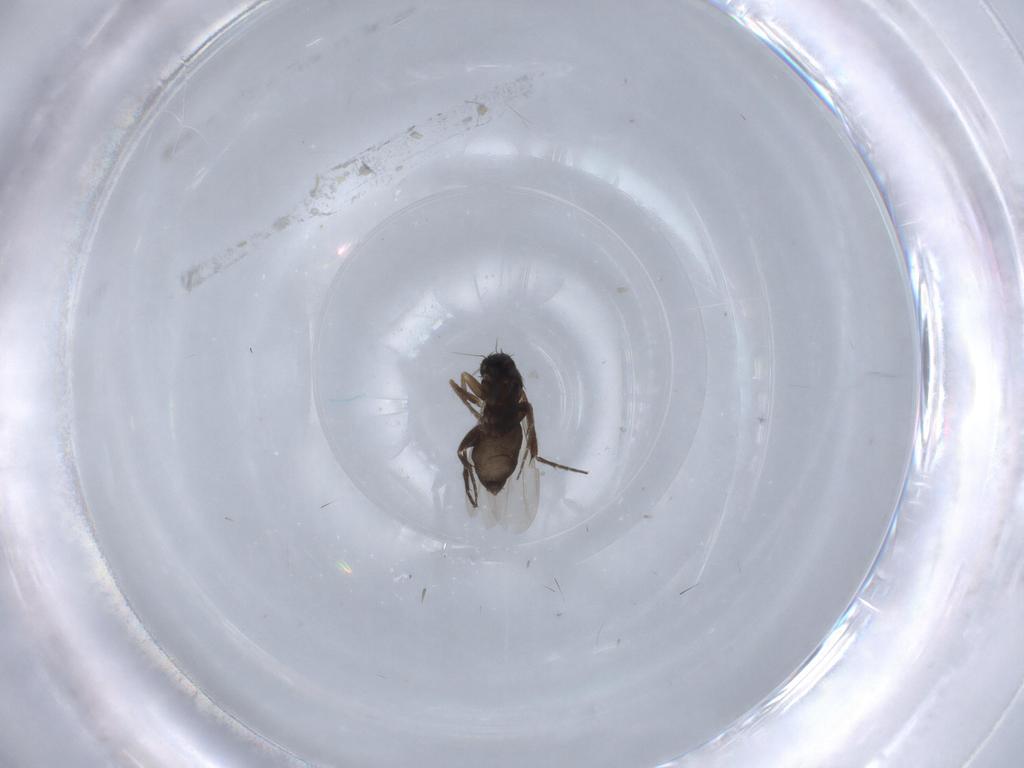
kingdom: Animalia
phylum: Arthropoda
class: Insecta
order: Diptera
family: Phoridae
